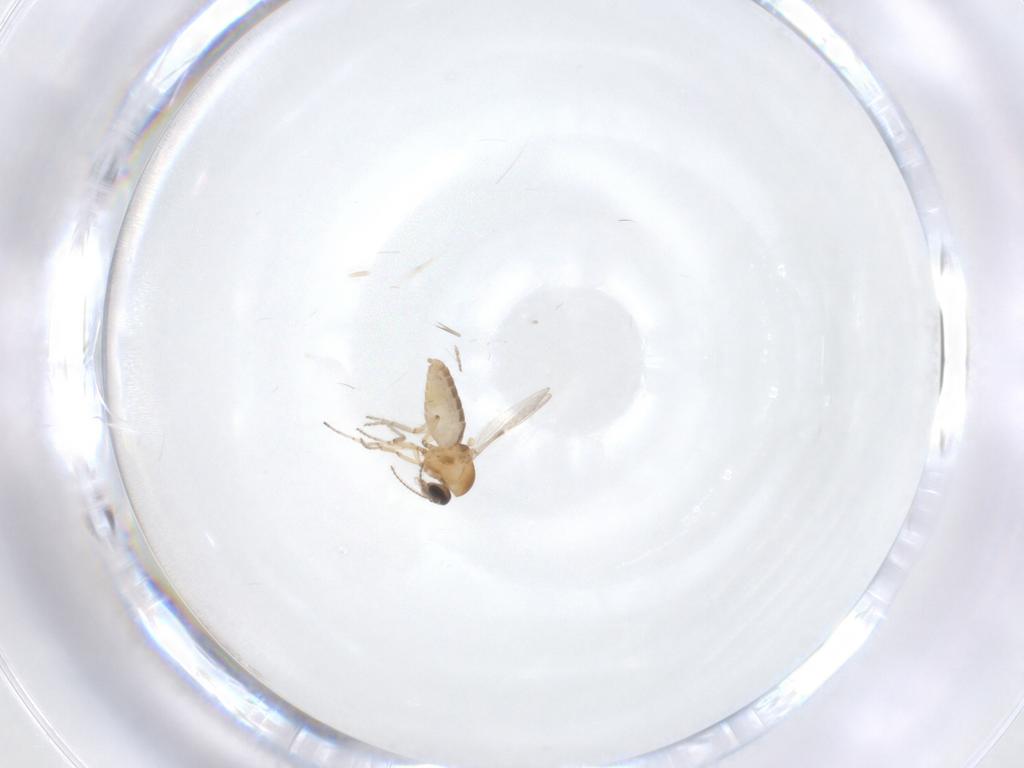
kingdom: Animalia
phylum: Arthropoda
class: Insecta
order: Diptera
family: Ceratopogonidae
